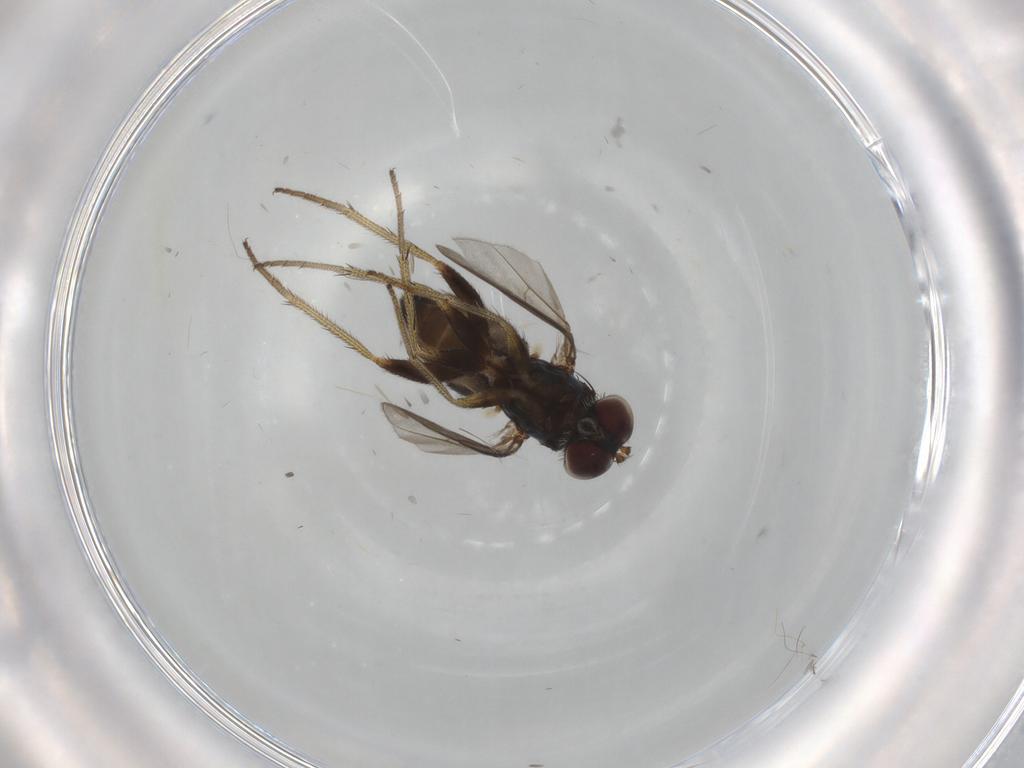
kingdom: Animalia
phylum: Arthropoda
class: Insecta
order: Diptera
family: Dolichopodidae
